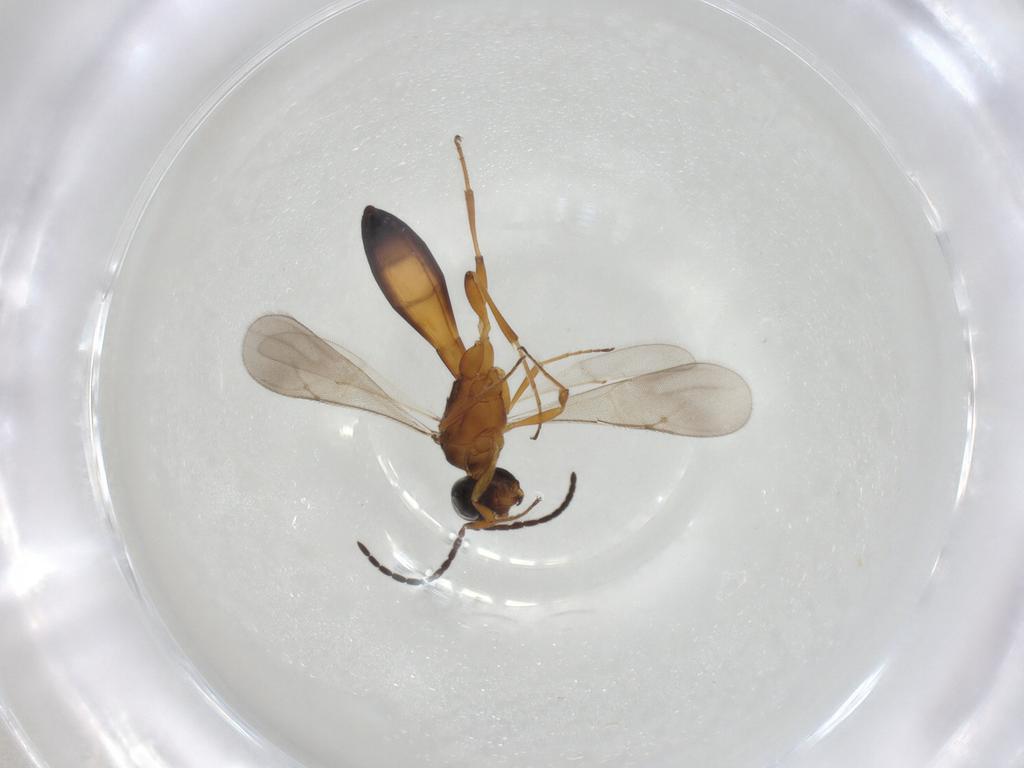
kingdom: Animalia
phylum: Arthropoda
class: Insecta
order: Hymenoptera
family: Scelionidae
